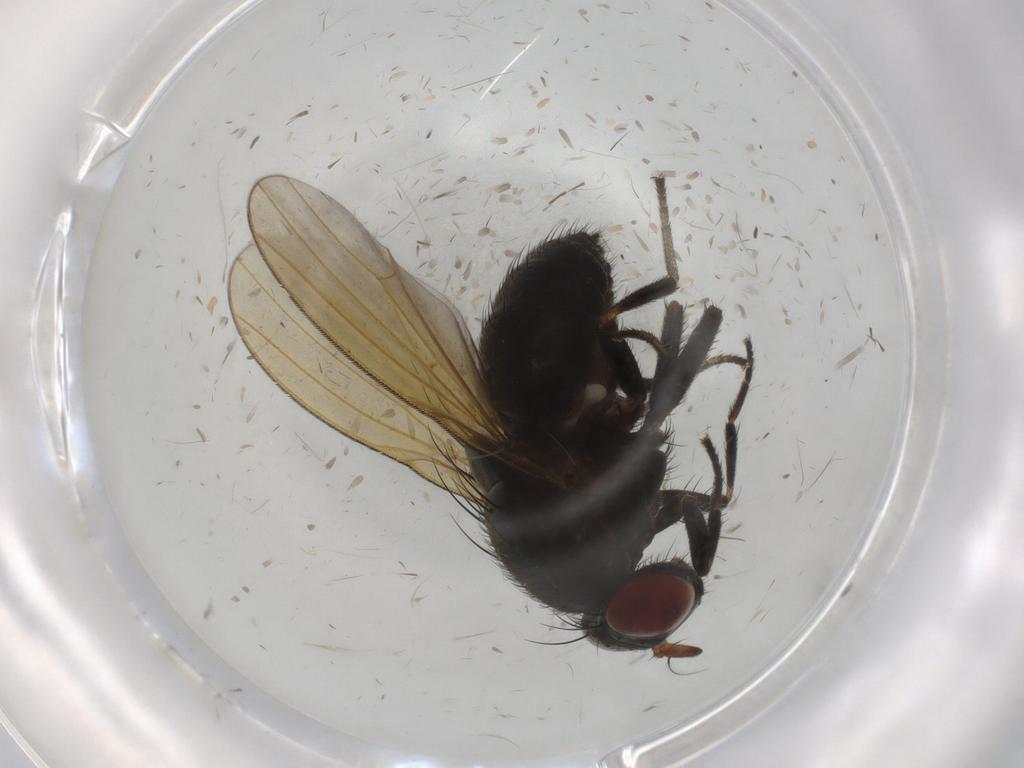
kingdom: Animalia
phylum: Arthropoda
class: Insecta
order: Diptera
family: Lauxaniidae
